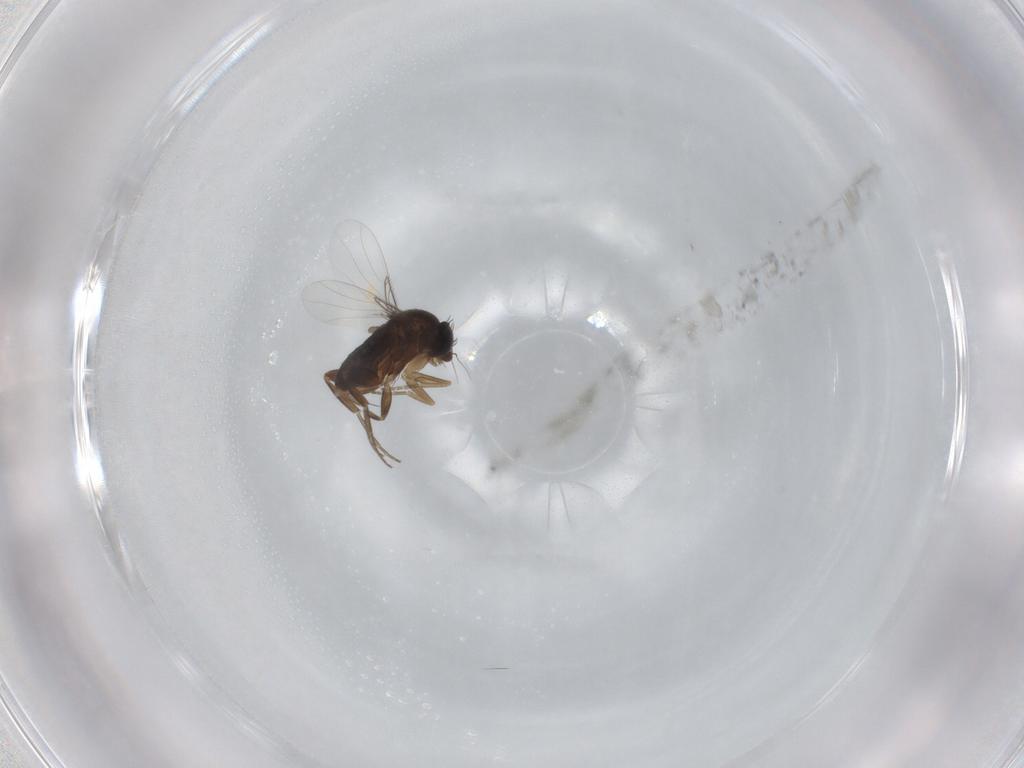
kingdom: Animalia
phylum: Arthropoda
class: Insecta
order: Diptera
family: Phoridae
